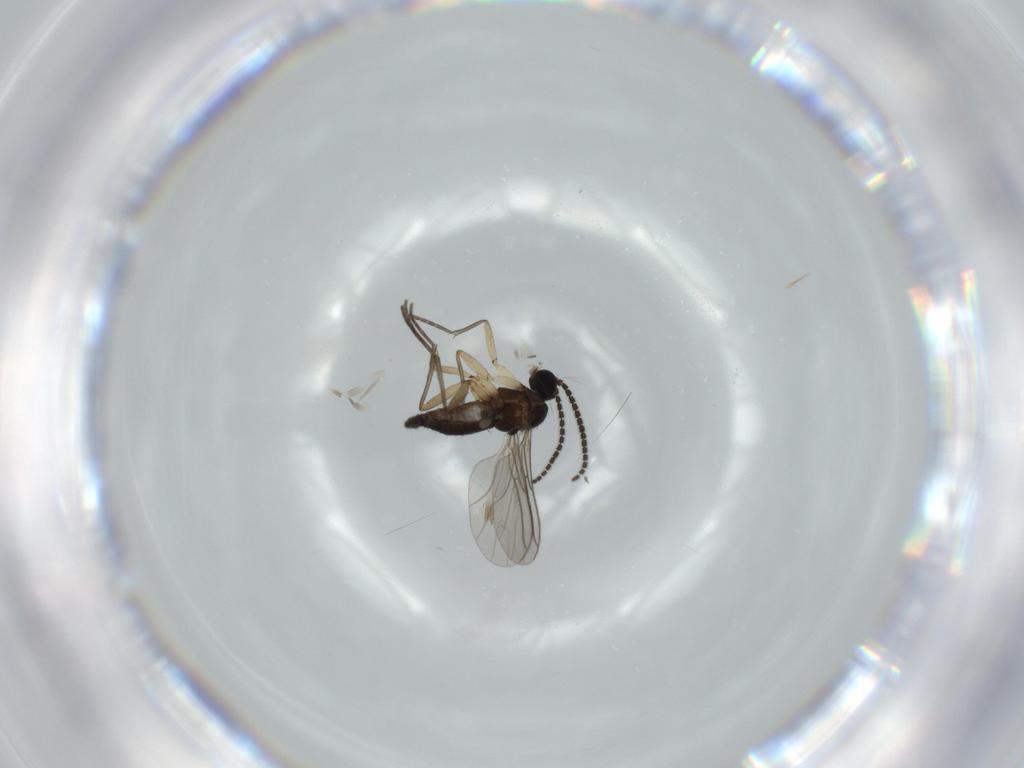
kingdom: Animalia
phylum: Arthropoda
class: Insecta
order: Diptera
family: Sciaridae
